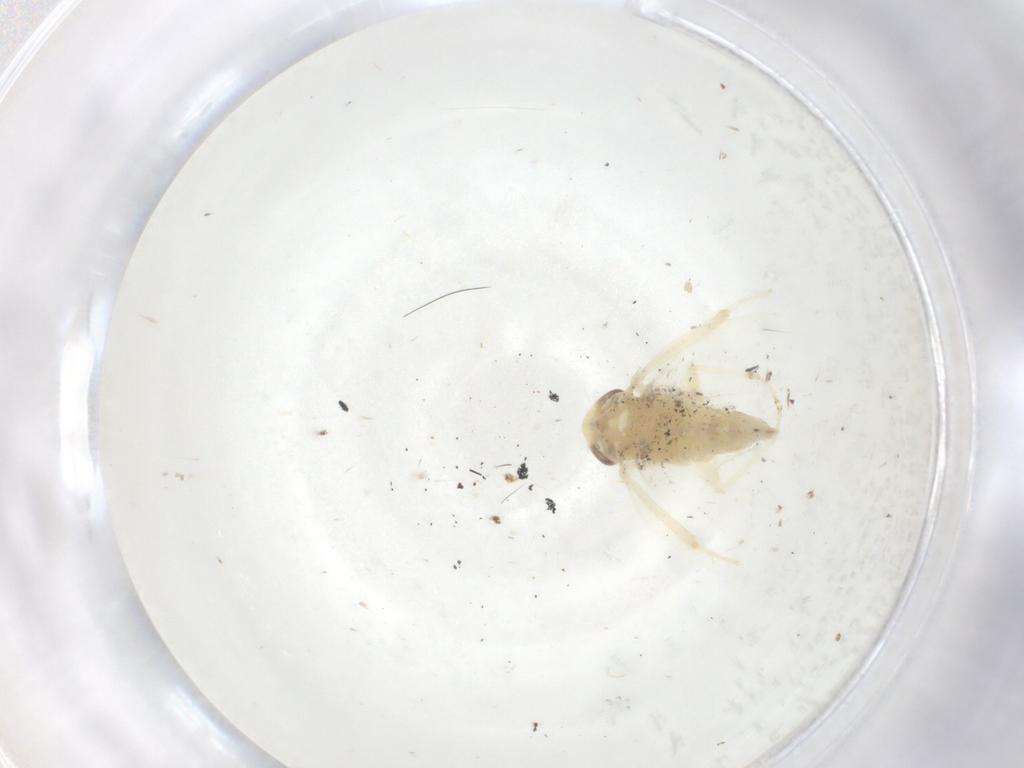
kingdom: Animalia
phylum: Arthropoda
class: Insecta
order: Hemiptera
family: Cicadellidae
